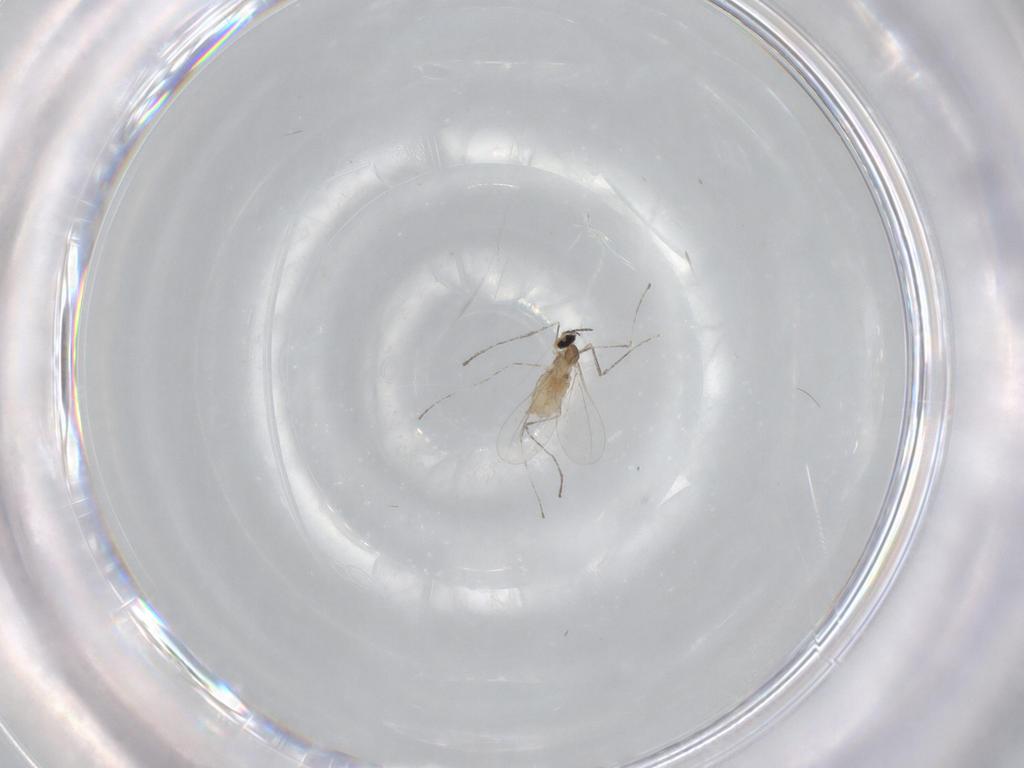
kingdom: Animalia
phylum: Arthropoda
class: Insecta
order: Diptera
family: Cecidomyiidae
